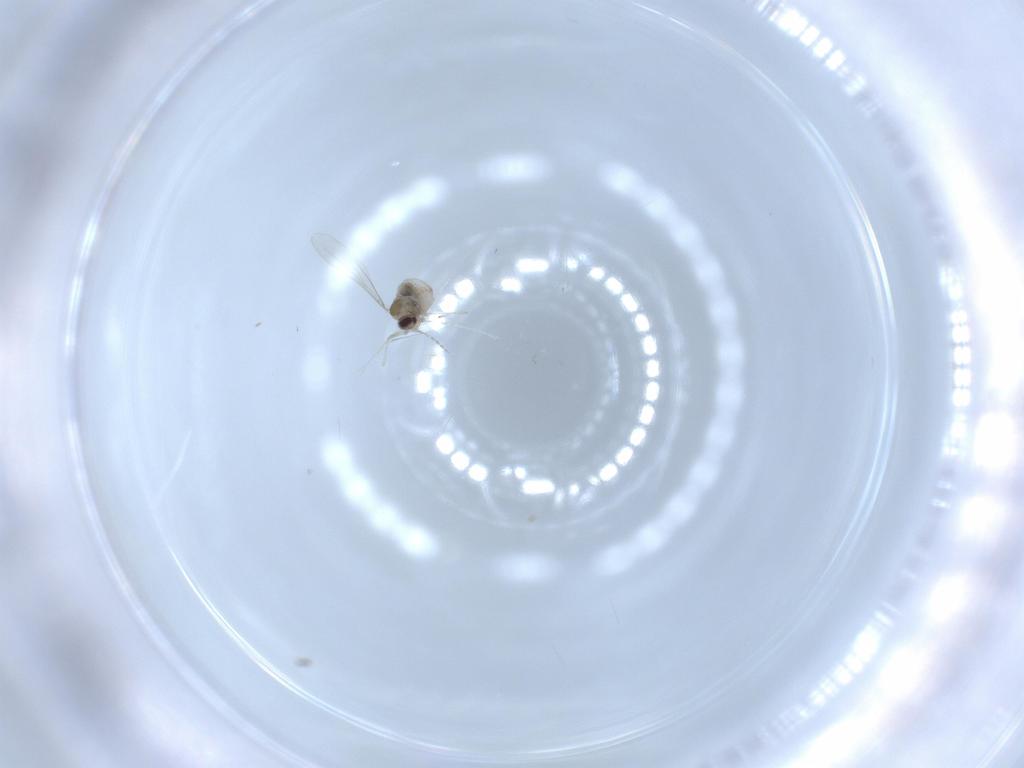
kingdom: Animalia
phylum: Arthropoda
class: Insecta
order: Diptera
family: Cecidomyiidae
